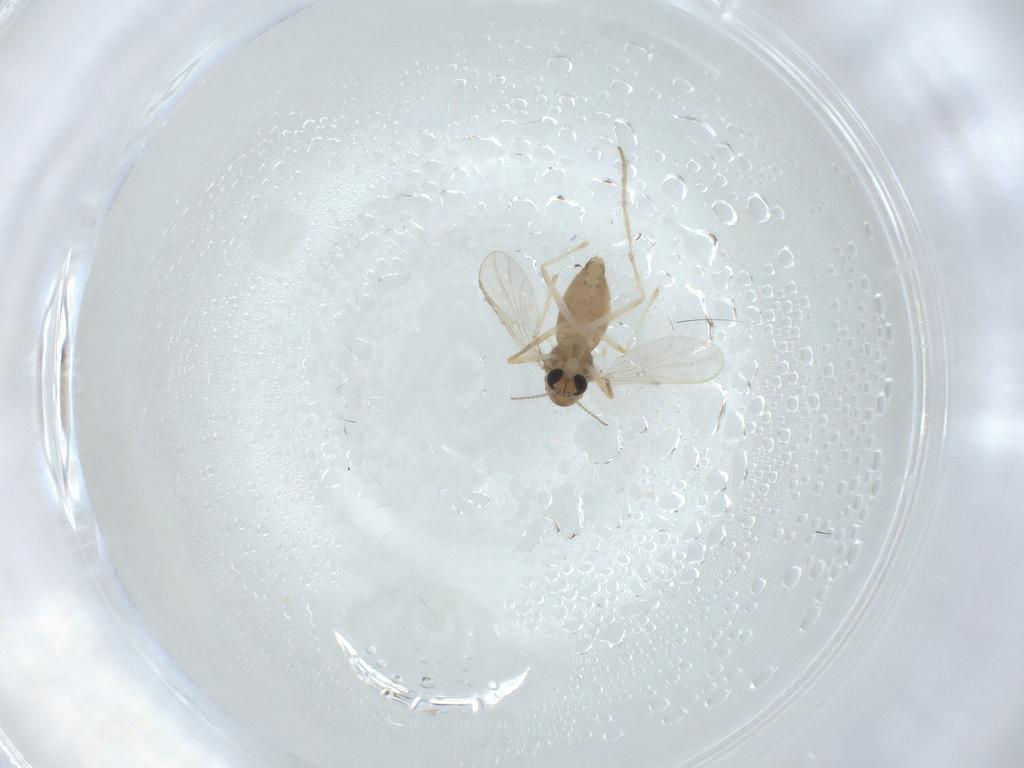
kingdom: Animalia
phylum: Arthropoda
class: Insecta
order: Diptera
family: Chironomidae
